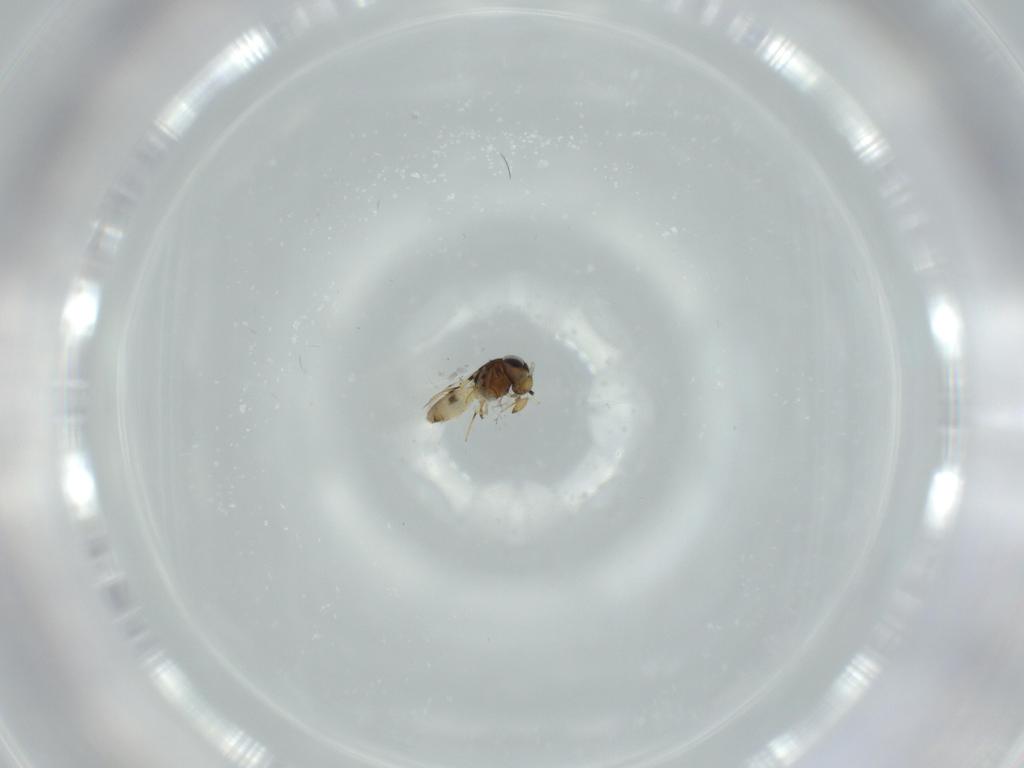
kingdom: Animalia
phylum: Arthropoda
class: Insecta
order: Hymenoptera
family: Scelionidae
